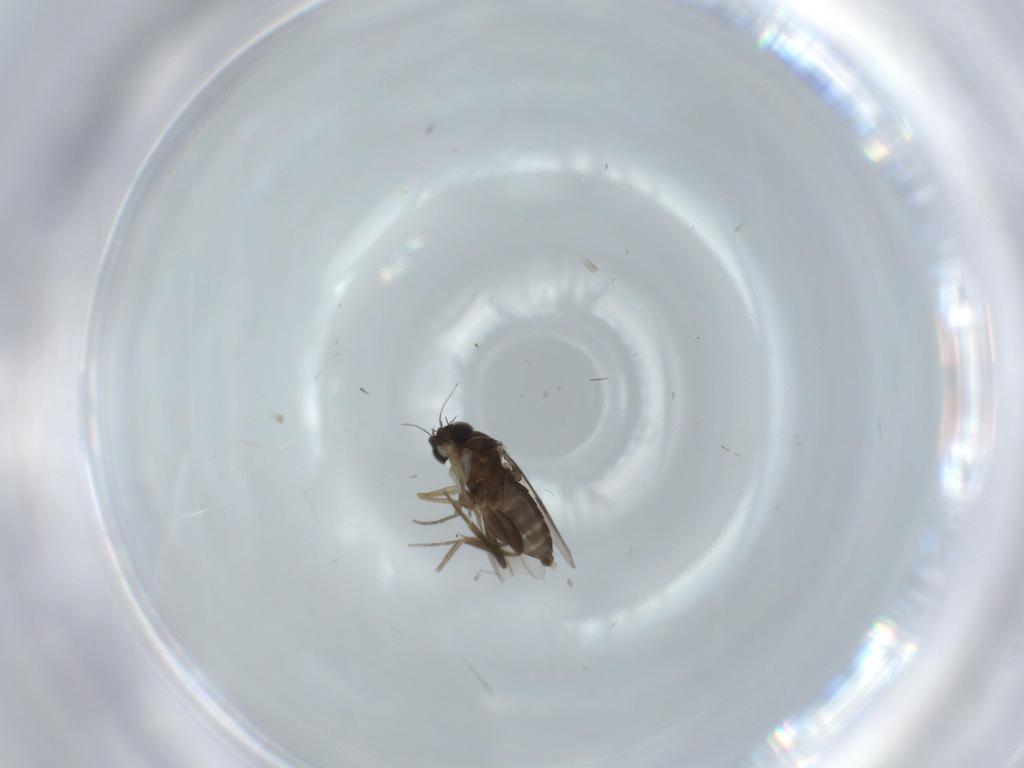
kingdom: Animalia
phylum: Arthropoda
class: Insecta
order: Diptera
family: Phoridae
